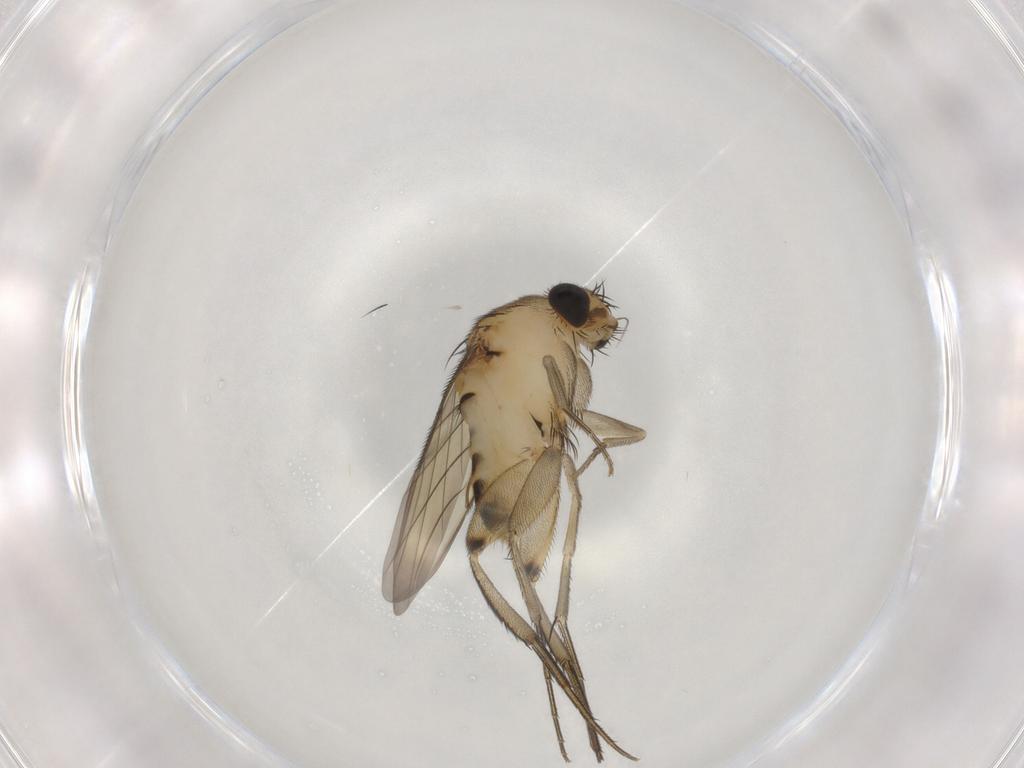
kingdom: Animalia
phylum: Arthropoda
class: Insecta
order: Diptera
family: Phoridae
